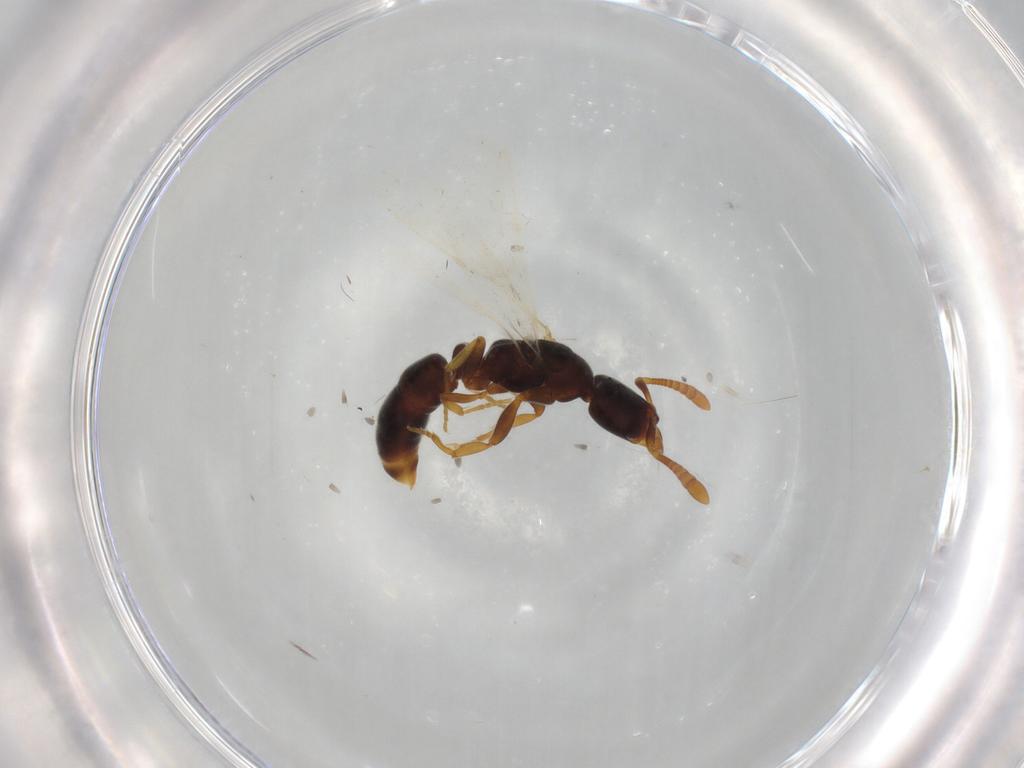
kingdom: Animalia
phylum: Arthropoda
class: Insecta
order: Hymenoptera
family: Formicidae
